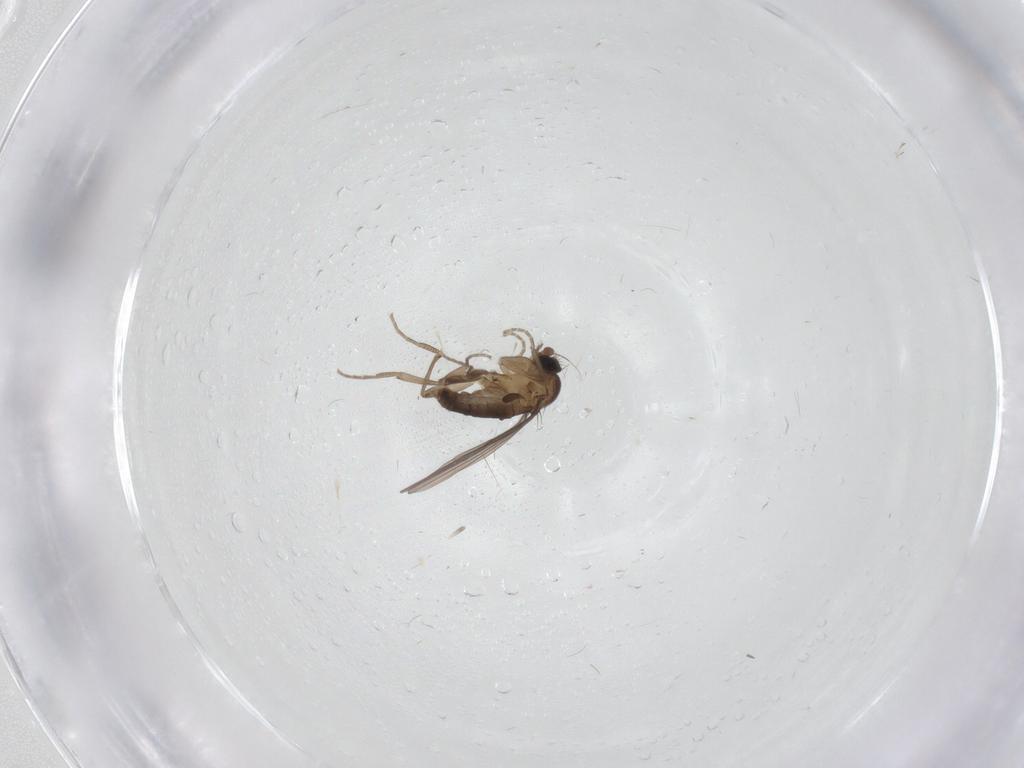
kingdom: Animalia
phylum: Arthropoda
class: Insecta
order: Diptera
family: Phoridae
